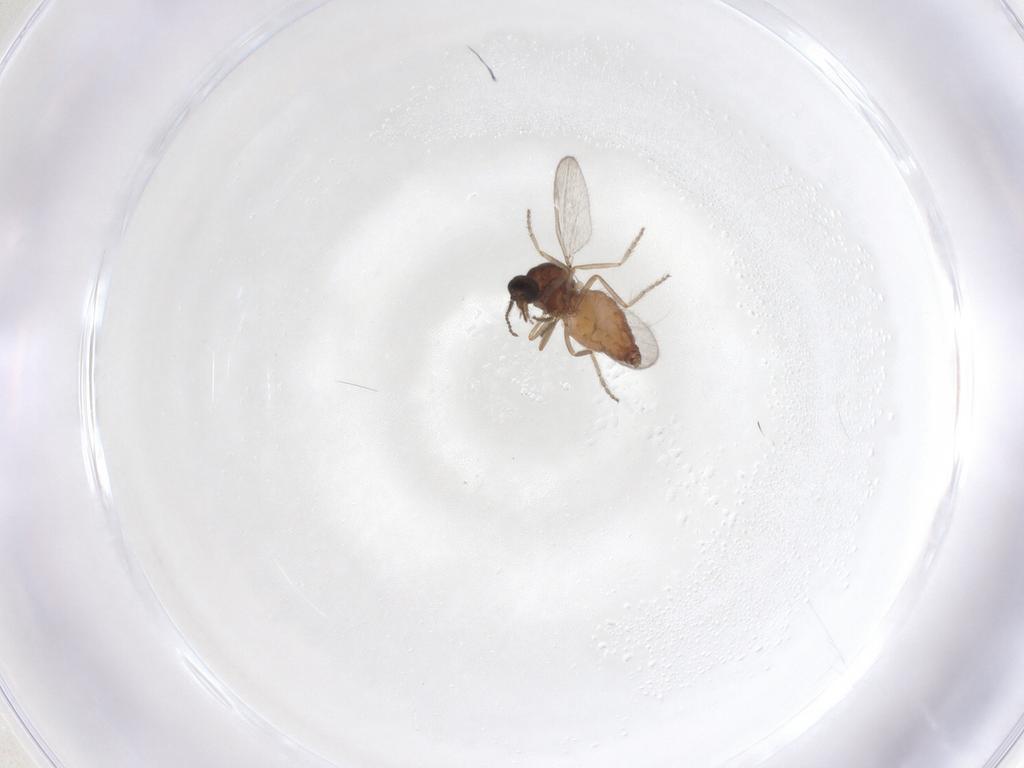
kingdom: Animalia
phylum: Arthropoda
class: Insecta
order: Diptera
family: Ceratopogonidae
